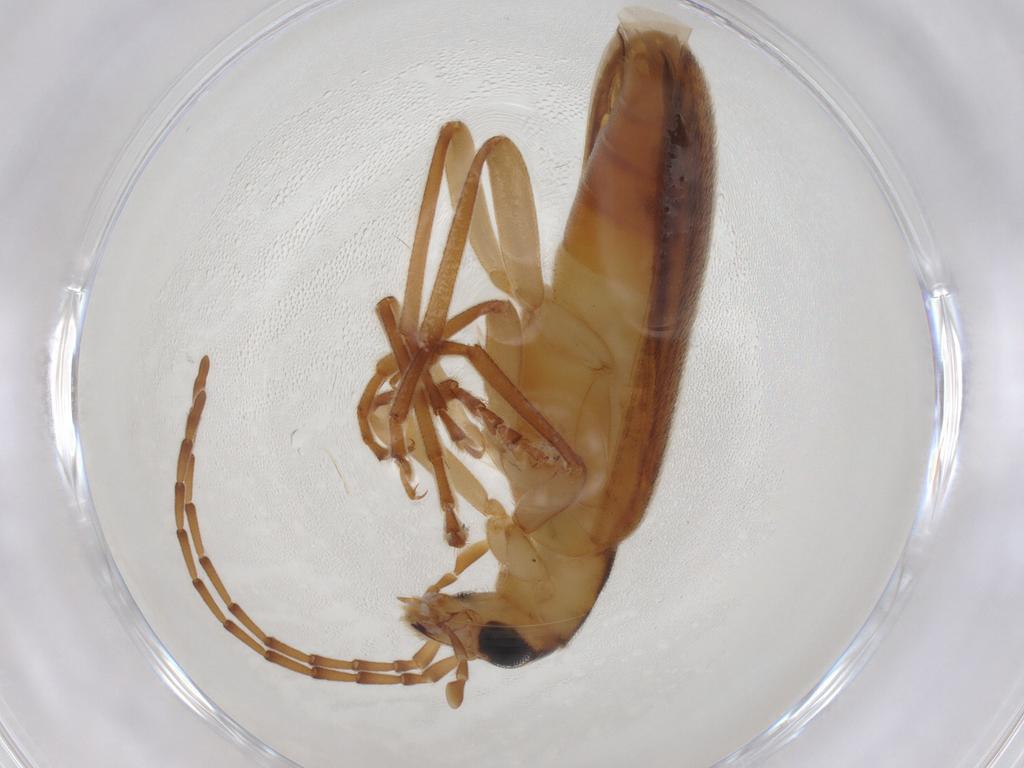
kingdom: Animalia
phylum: Arthropoda
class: Insecta
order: Coleoptera
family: Oedemeridae
